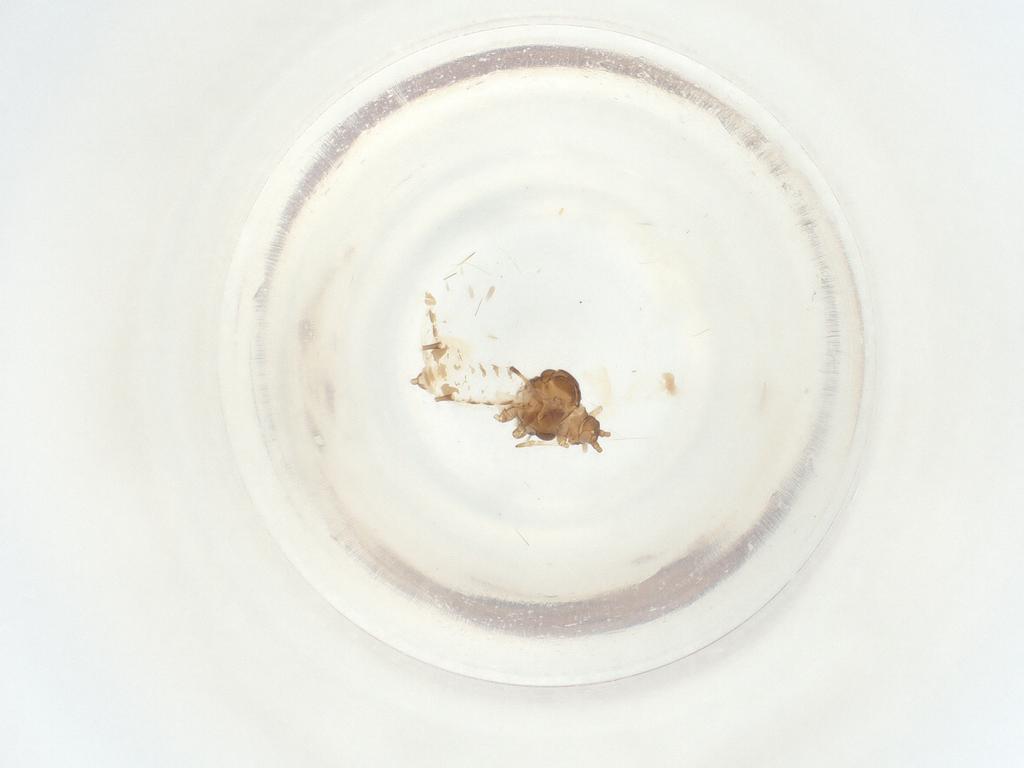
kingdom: Animalia
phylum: Arthropoda
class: Insecta
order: Hemiptera
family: Aphididae
